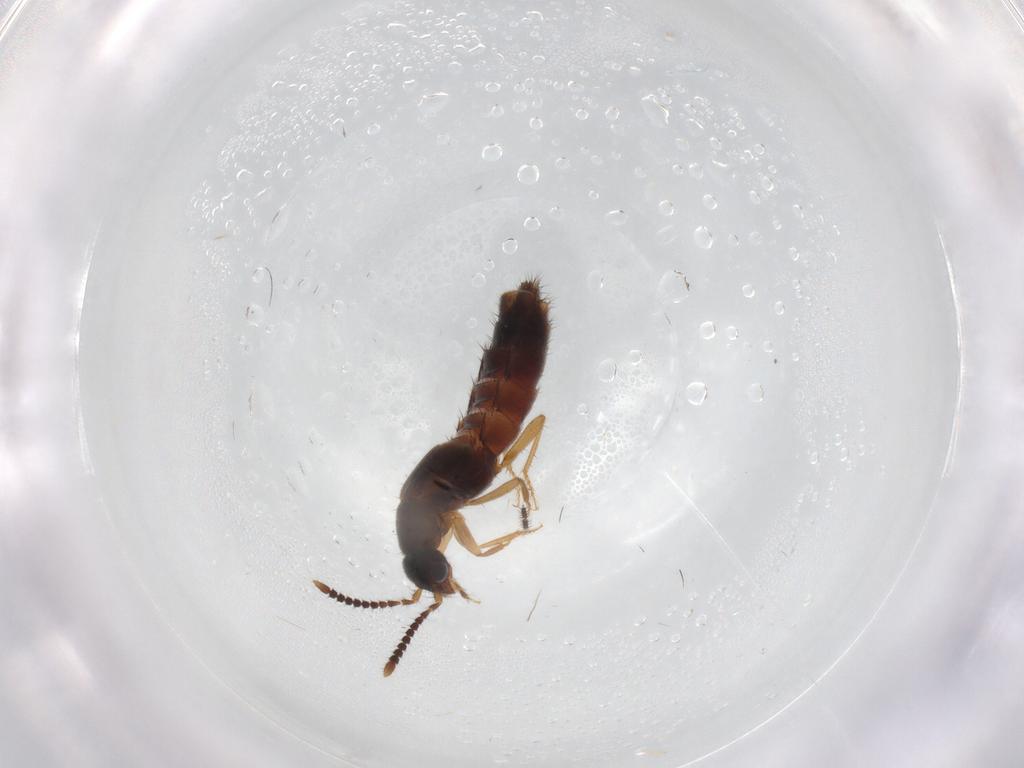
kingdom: Animalia
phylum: Arthropoda
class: Insecta
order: Coleoptera
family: Staphylinidae
